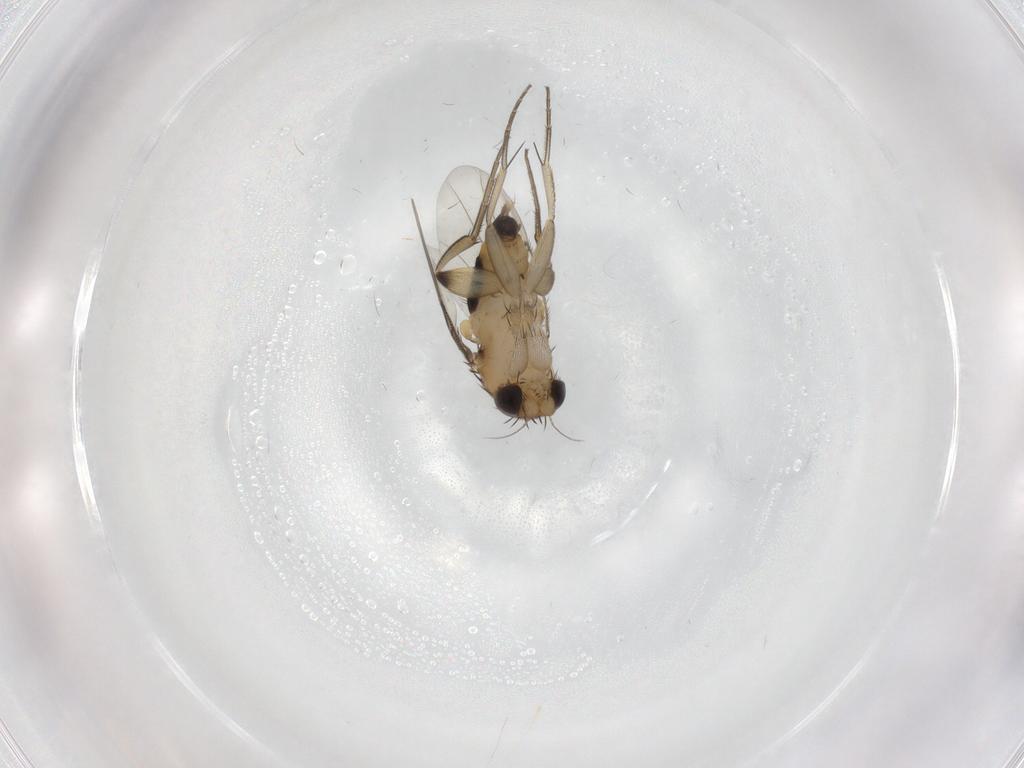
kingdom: Animalia
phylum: Arthropoda
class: Insecta
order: Diptera
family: Phoridae
